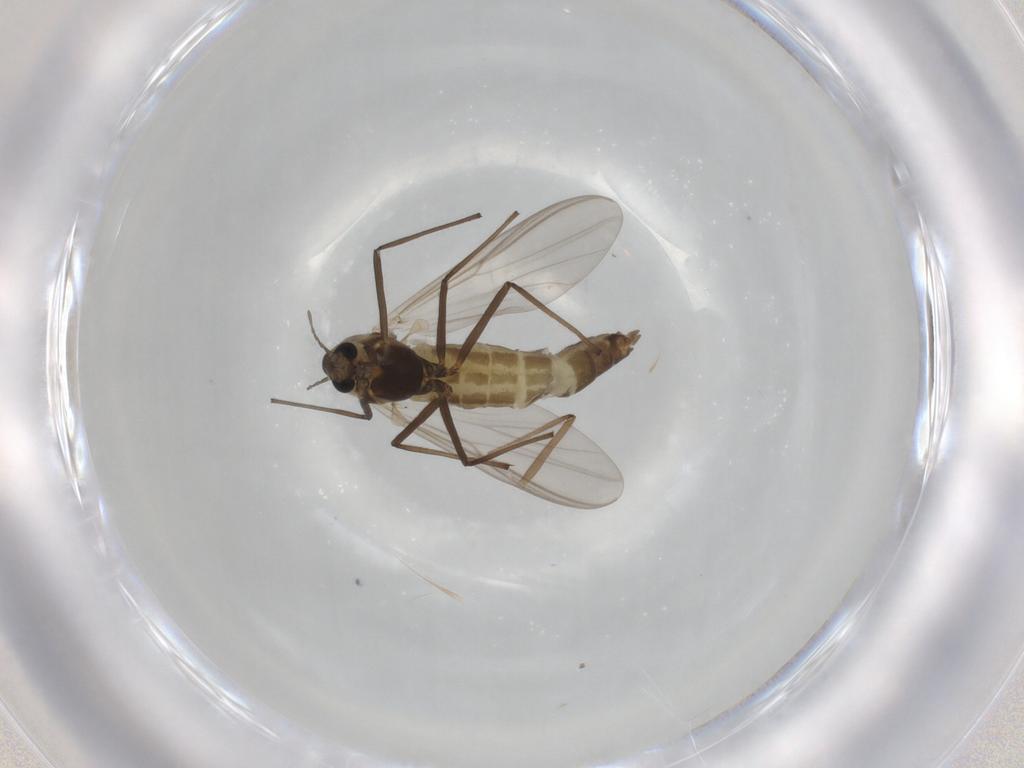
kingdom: Animalia
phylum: Arthropoda
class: Insecta
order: Diptera
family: Chironomidae
